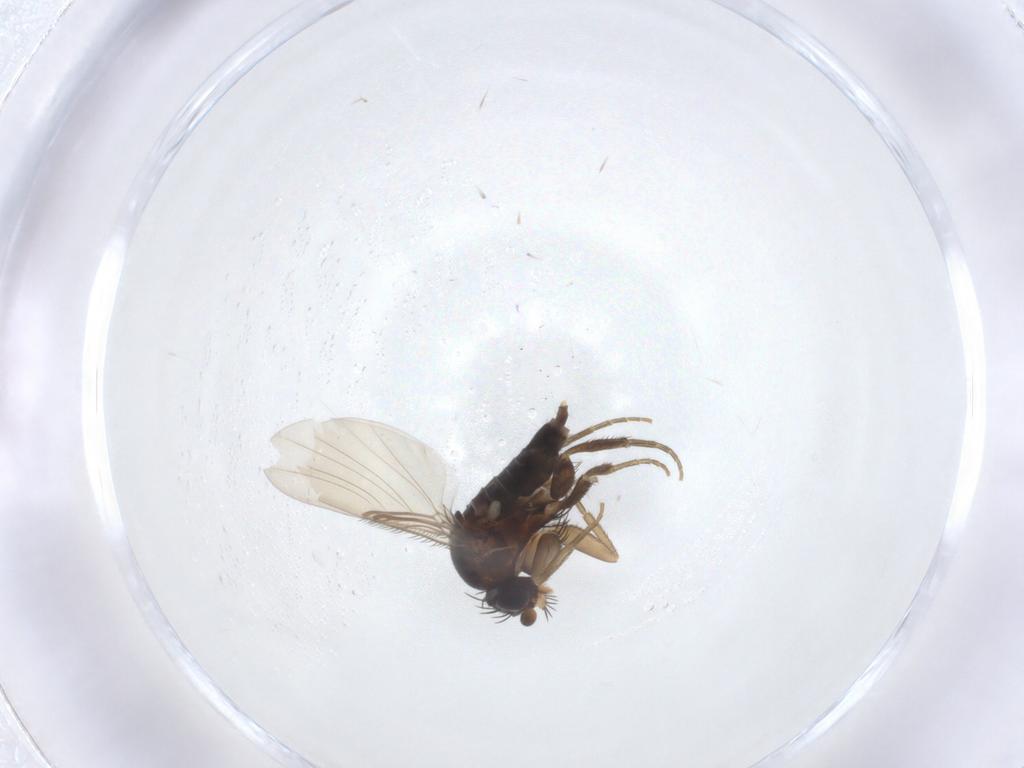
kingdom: Animalia
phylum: Arthropoda
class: Insecta
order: Diptera
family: Phoridae
